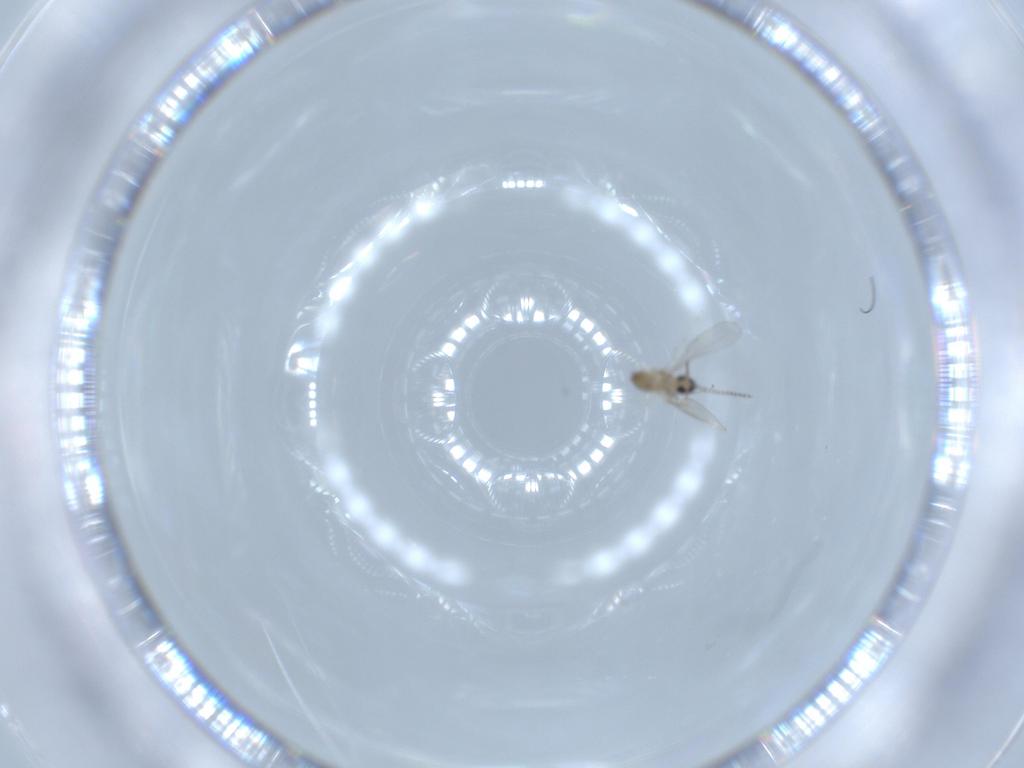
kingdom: Animalia
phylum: Arthropoda
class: Insecta
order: Diptera
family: Cecidomyiidae
